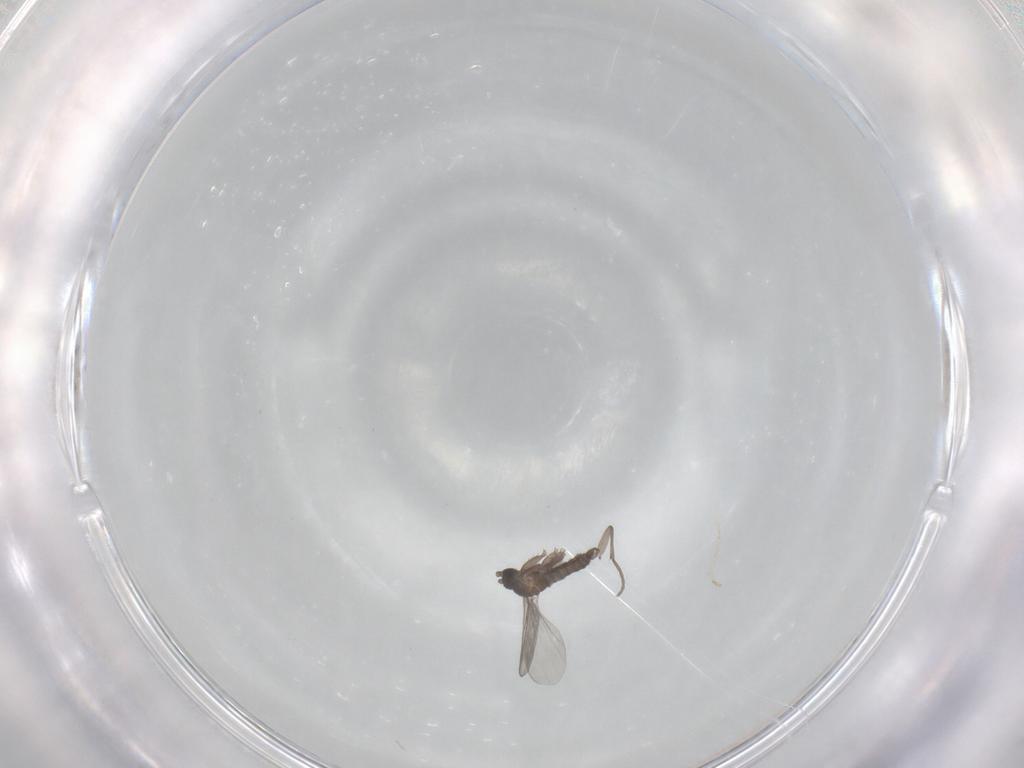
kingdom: Animalia
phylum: Arthropoda
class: Insecta
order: Diptera
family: Sciaridae
